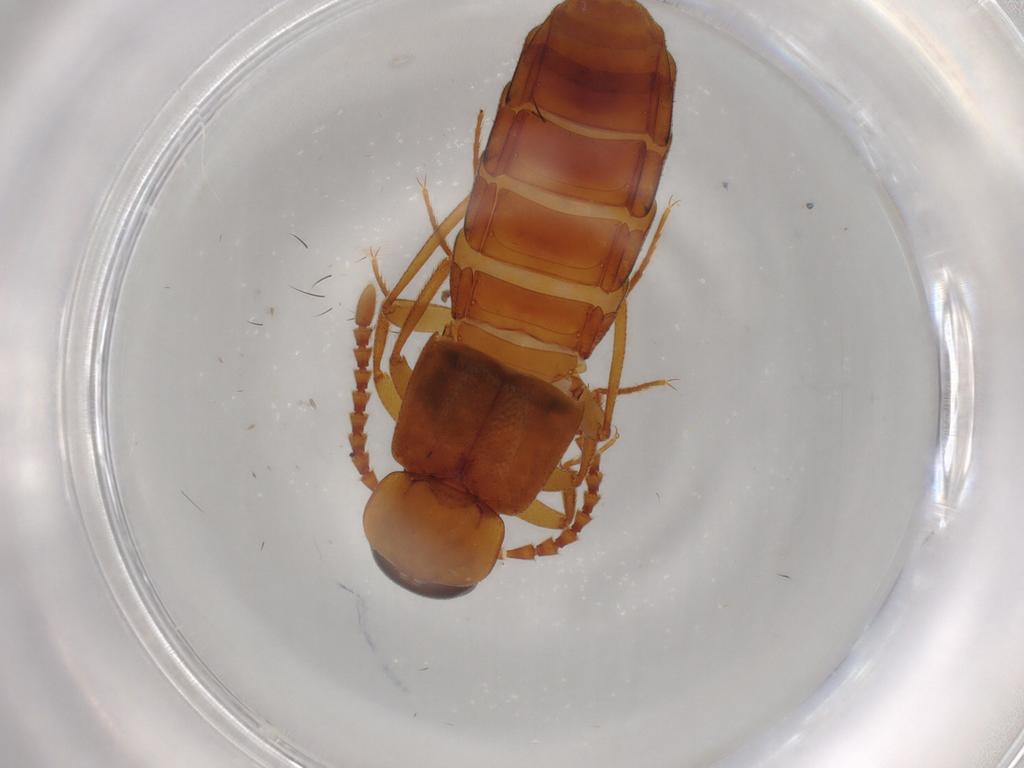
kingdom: Animalia
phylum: Arthropoda
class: Insecta
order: Coleoptera
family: Staphylinidae
